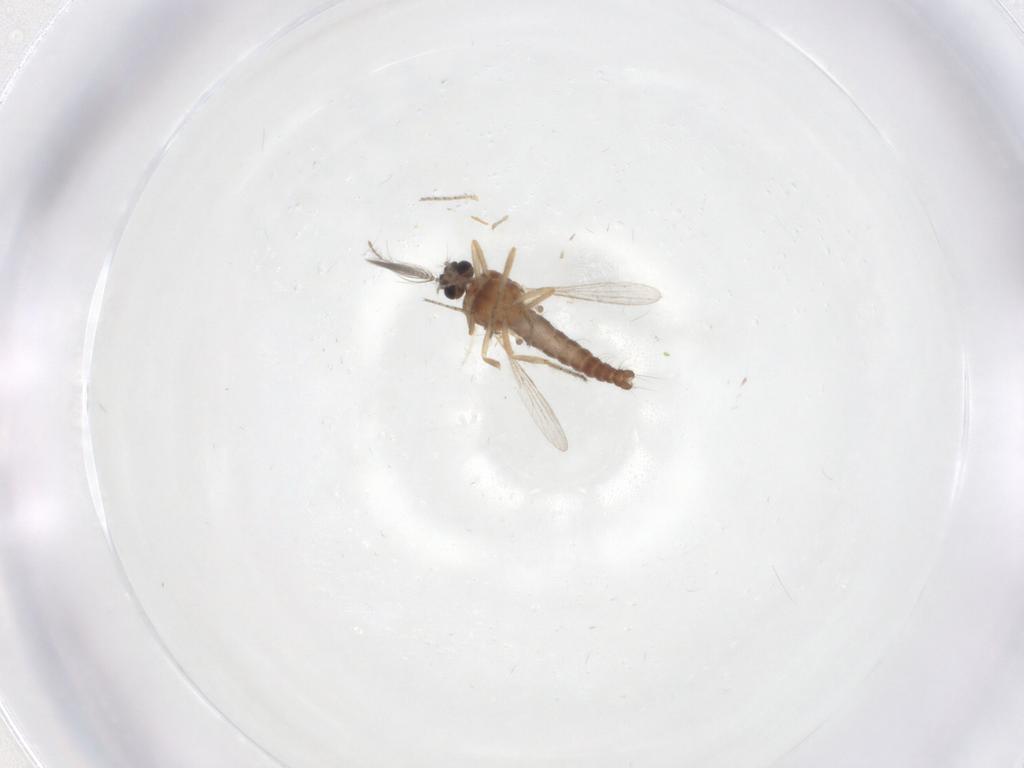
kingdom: Animalia
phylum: Arthropoda
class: Insecta
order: Diptera
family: Ceratopogonidae
